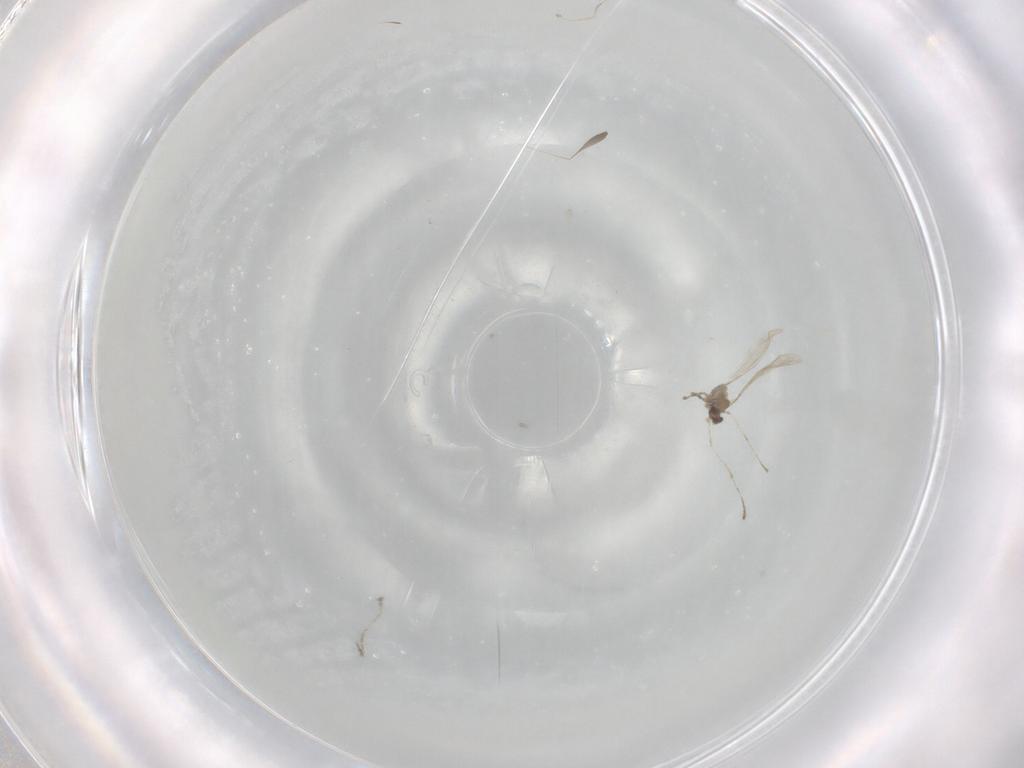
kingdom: Animalia
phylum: Arthropoda
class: Insecta
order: Diptera
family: Cecidomyiidae
